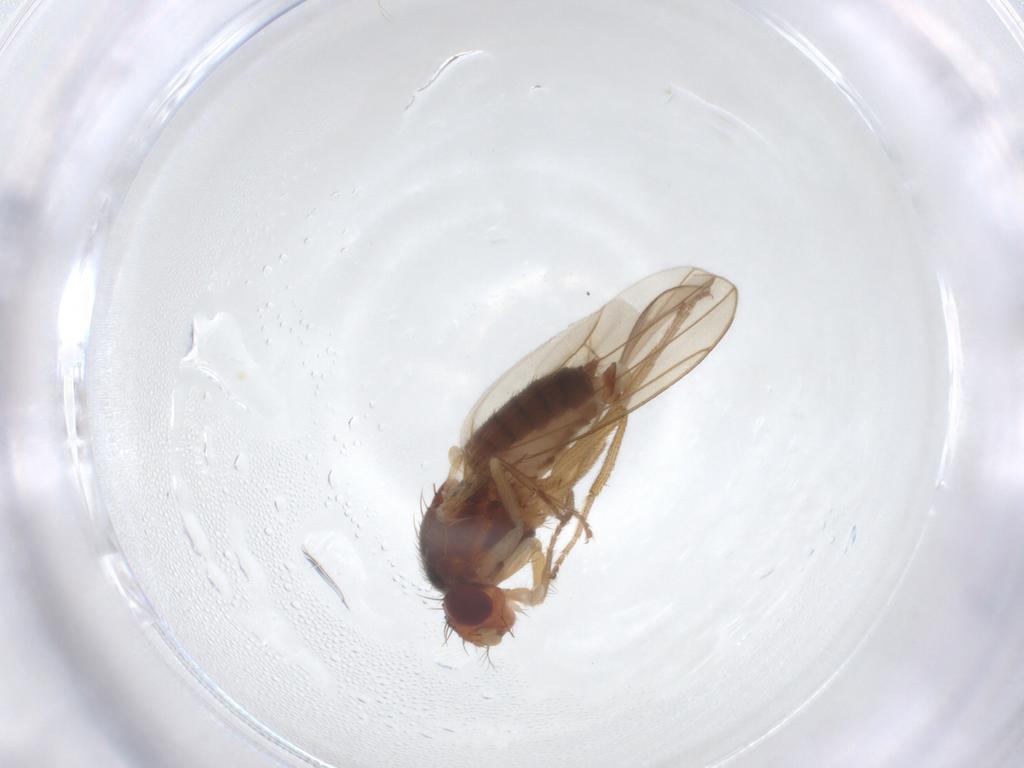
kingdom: Animalia
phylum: Arthropoda
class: Insecta
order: Diptera
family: Drosophilidae
